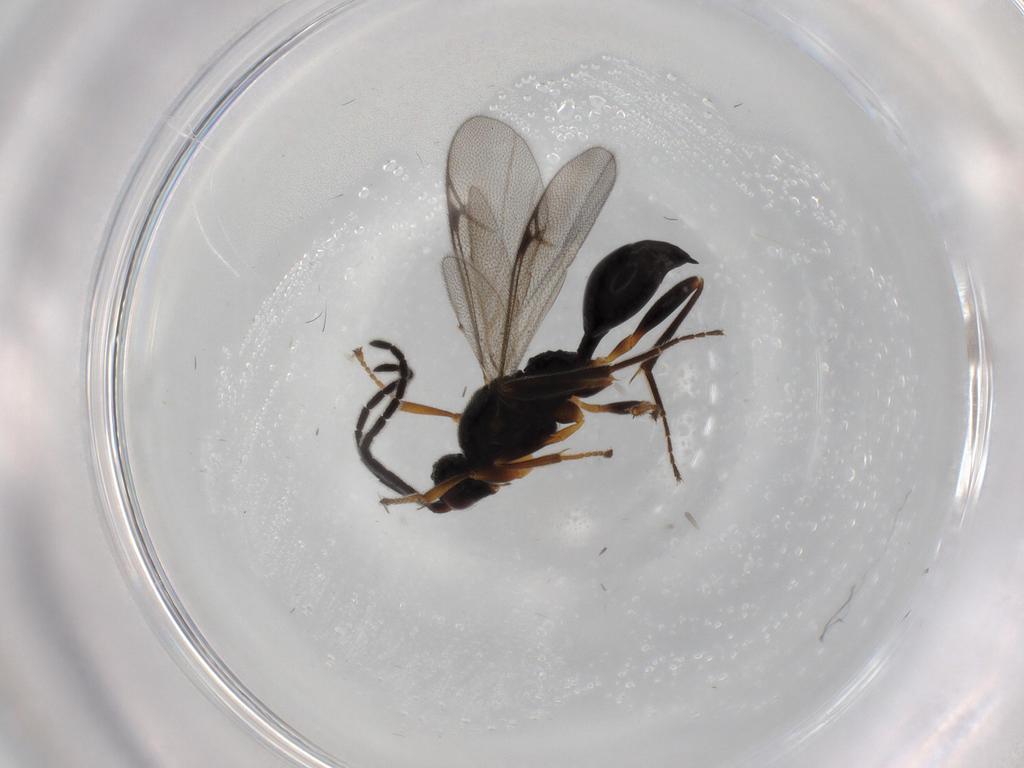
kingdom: Animalia
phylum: Arthropoda
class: Insecta
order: Hymenoptera
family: Proctotrupidae
